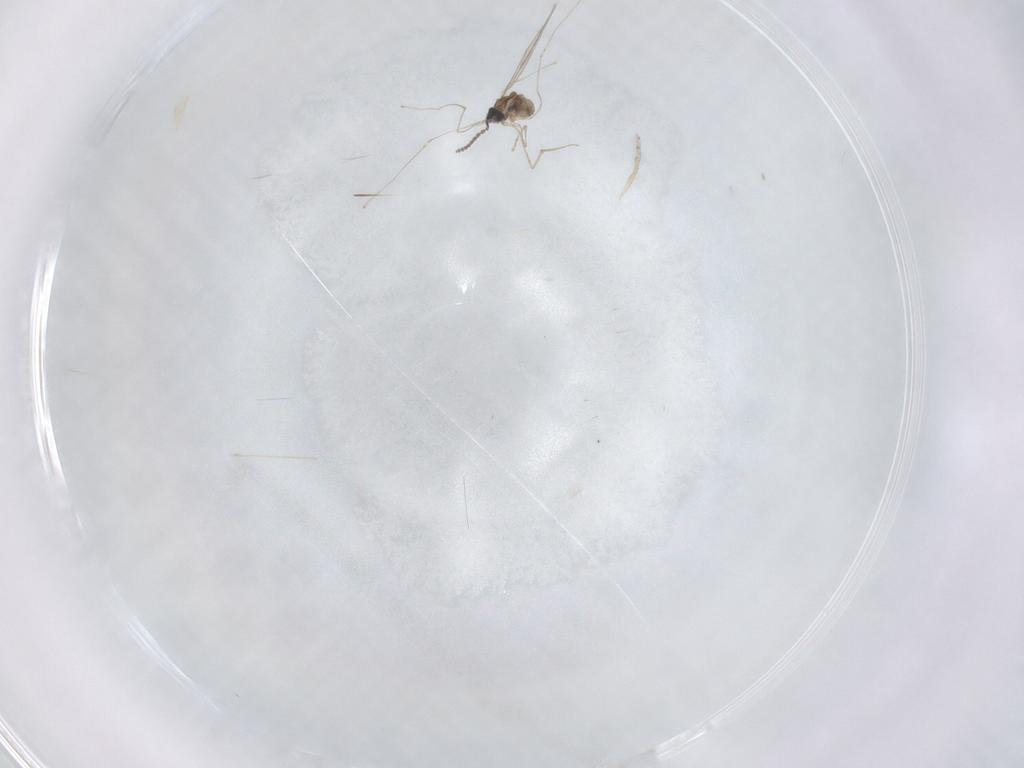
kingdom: Animalia
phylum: Arthropoda
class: Insecta
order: Diptera
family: Cecidomyiidae
